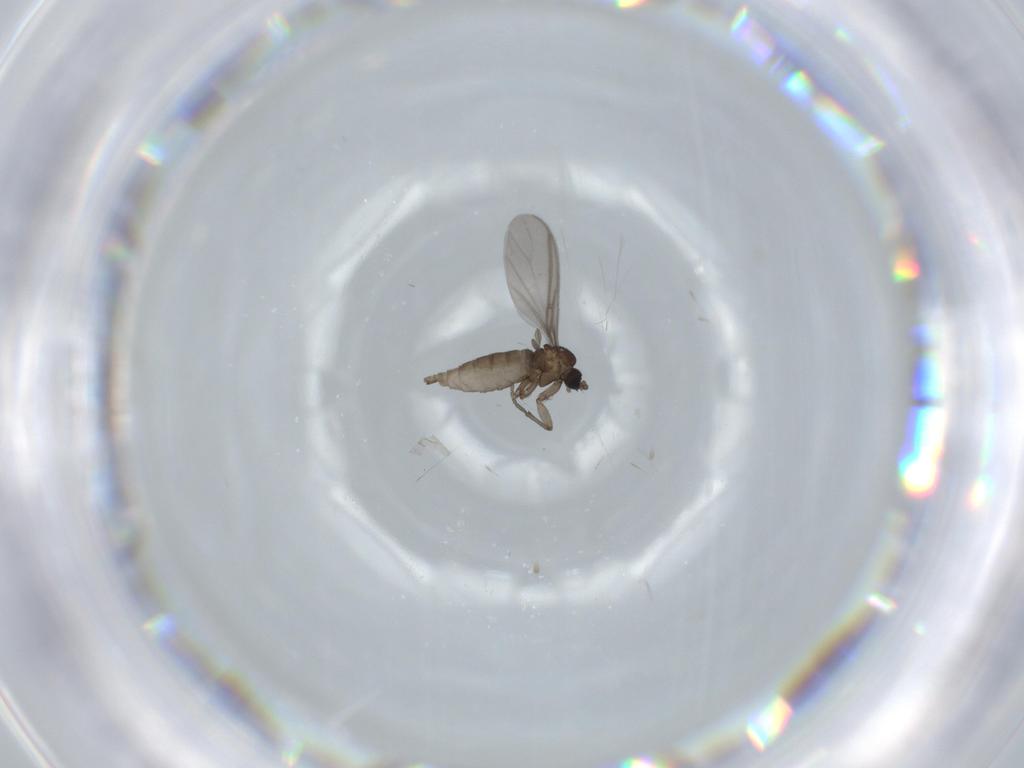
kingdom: Animalia
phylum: Arthropoda
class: Insecta
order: Diptera
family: Sciaridae
